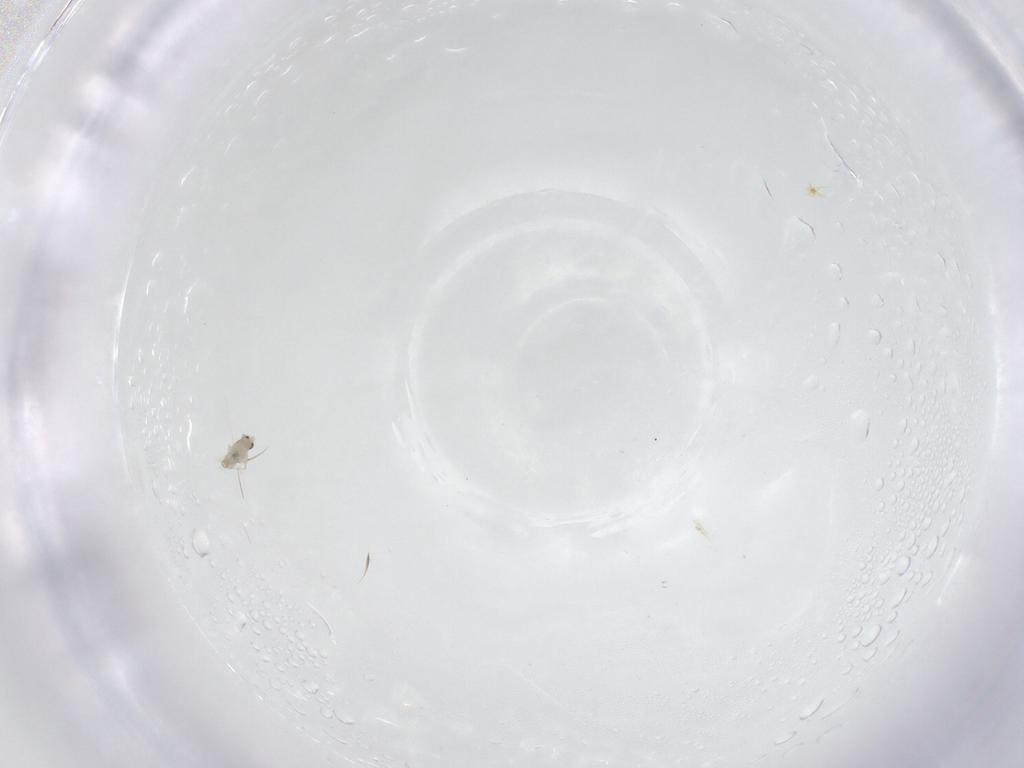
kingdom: Animalia
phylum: Arthropoda
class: Insecta
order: Diptera
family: Cecidomyiidae
